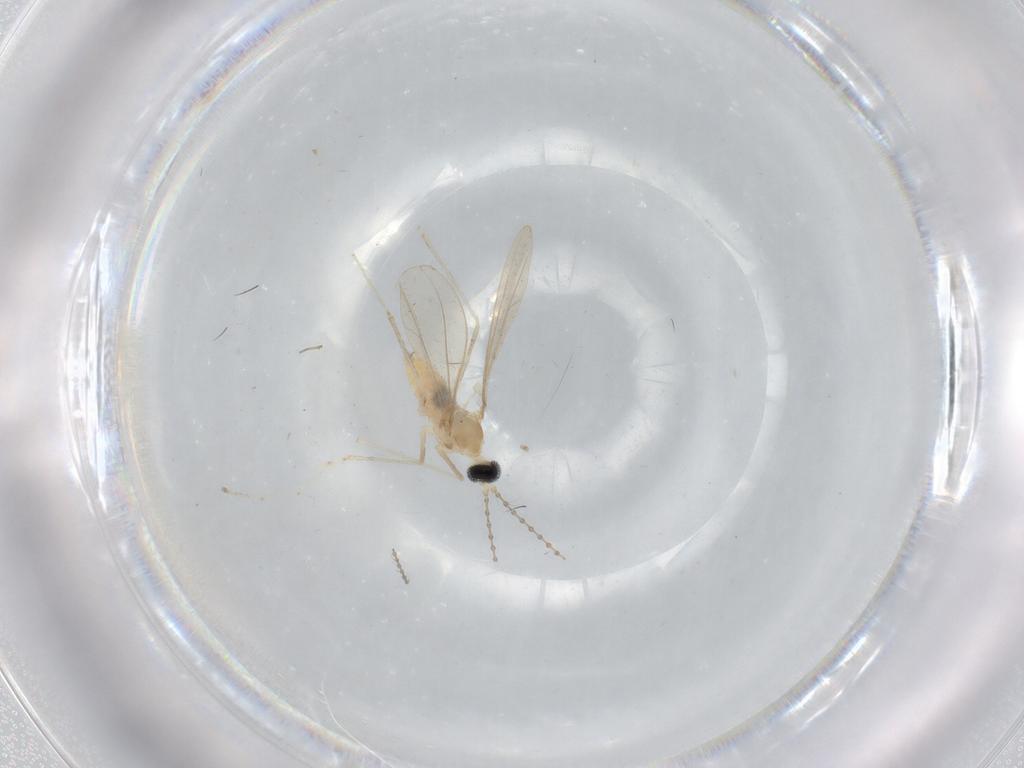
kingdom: Animalia
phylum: Arthropoda
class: Insecta
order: Diptera
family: Cecidomyiidae
